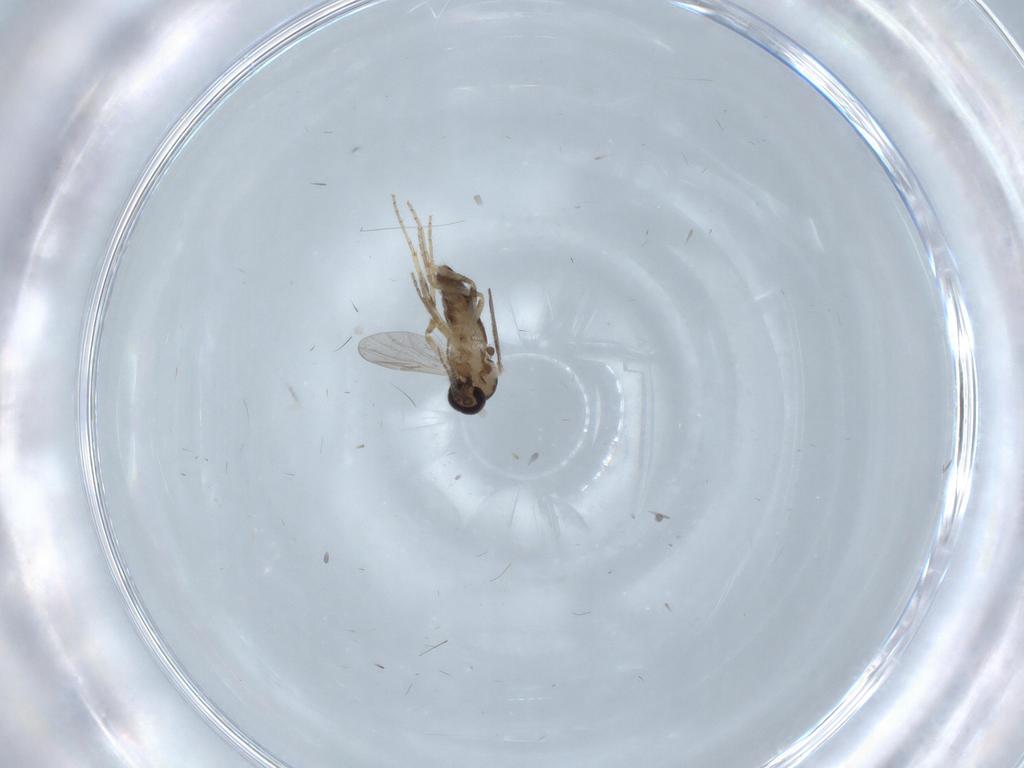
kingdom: Animalia
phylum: Arthropoda
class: Insecta
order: Diptera
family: Ceratopogonidae
